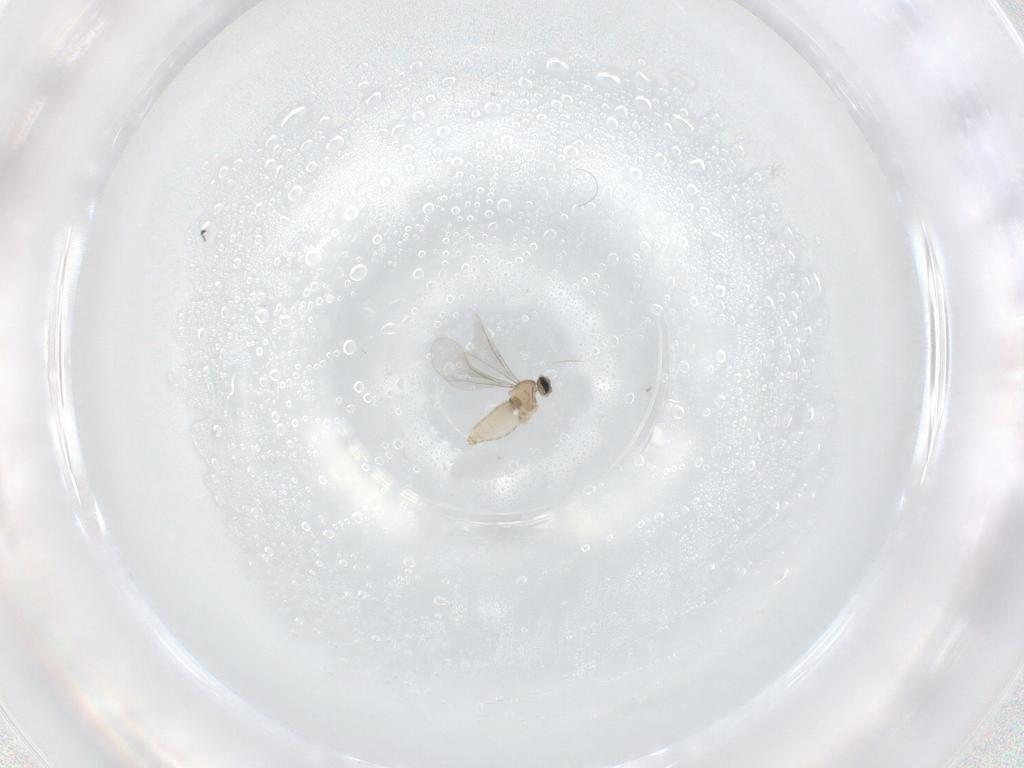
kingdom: Animalia
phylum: Arthropoda
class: Insecta
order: Diptera
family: Cecidomyiidae
